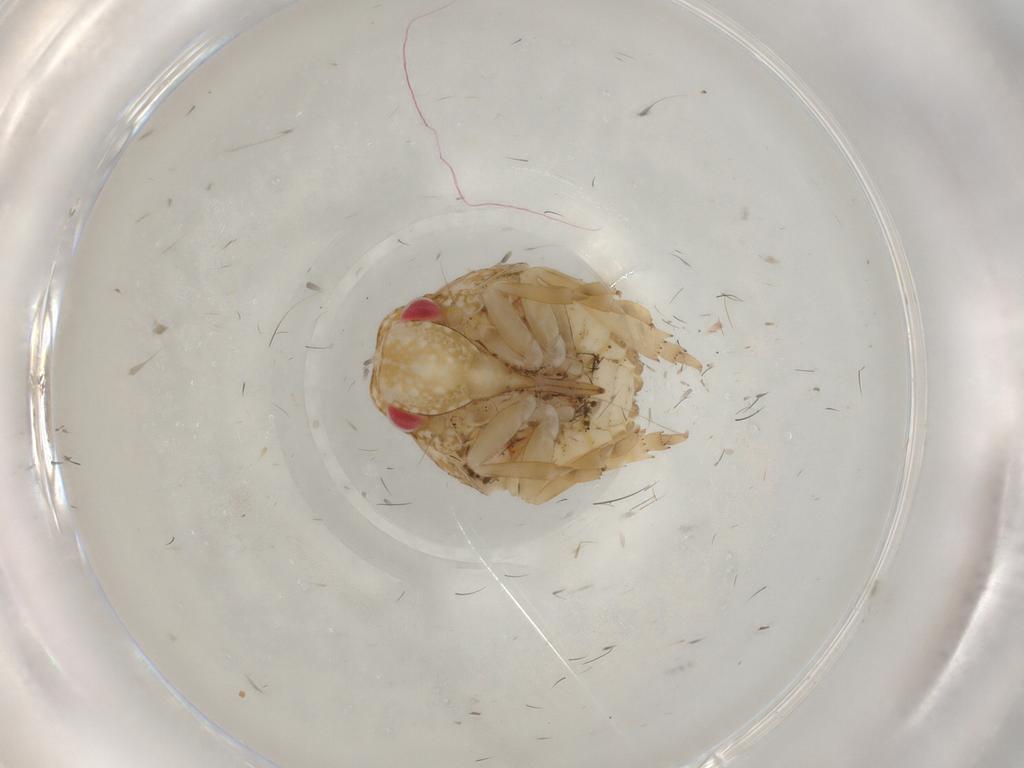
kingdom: Animalia
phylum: Arthropoda
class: Insecta
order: Hemiptera
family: Acanaloniidae
